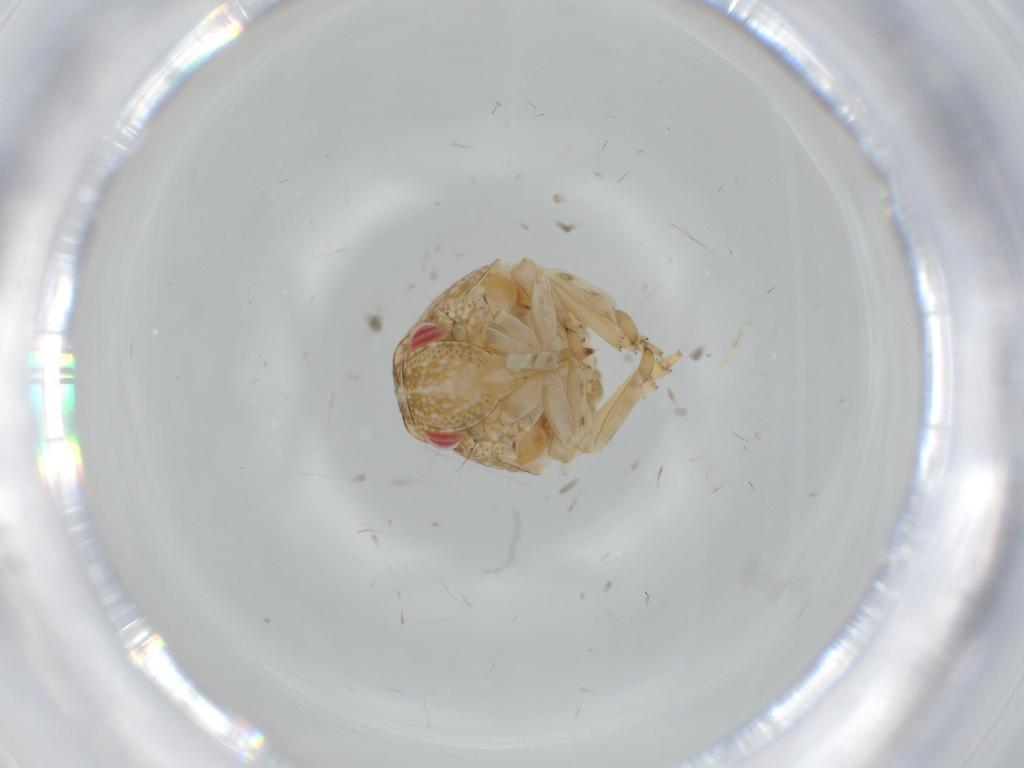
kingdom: Animalia
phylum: Arthropoda
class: Insecta
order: Hemiptera
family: Acanaloniidae
